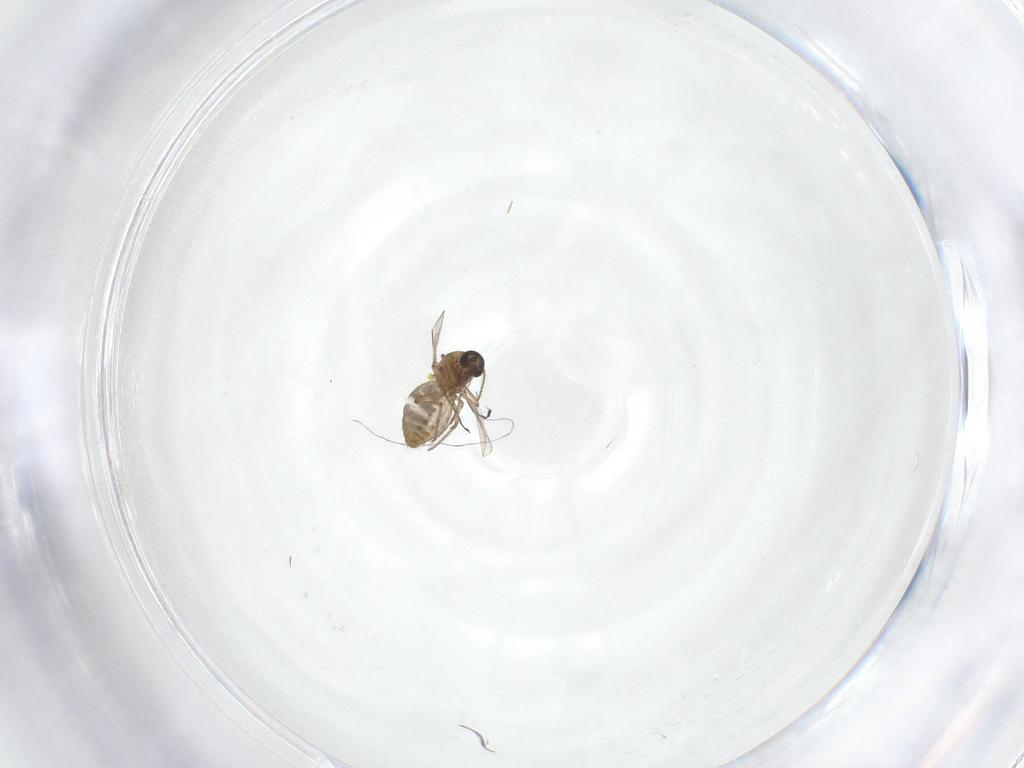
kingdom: Animalia
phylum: Arthropoda
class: Insecta
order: Diptera
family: Ceratopogonidae
